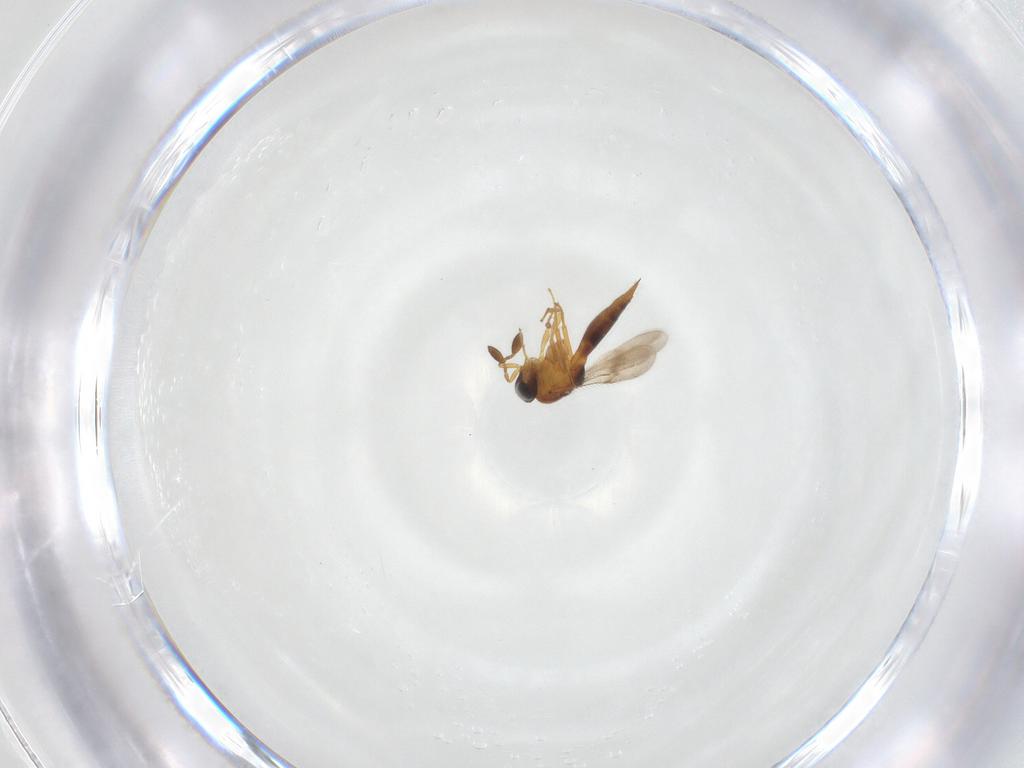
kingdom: Animalia
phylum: Arthropoda
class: Insecta
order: Hymenoptera
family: Scelionidae
